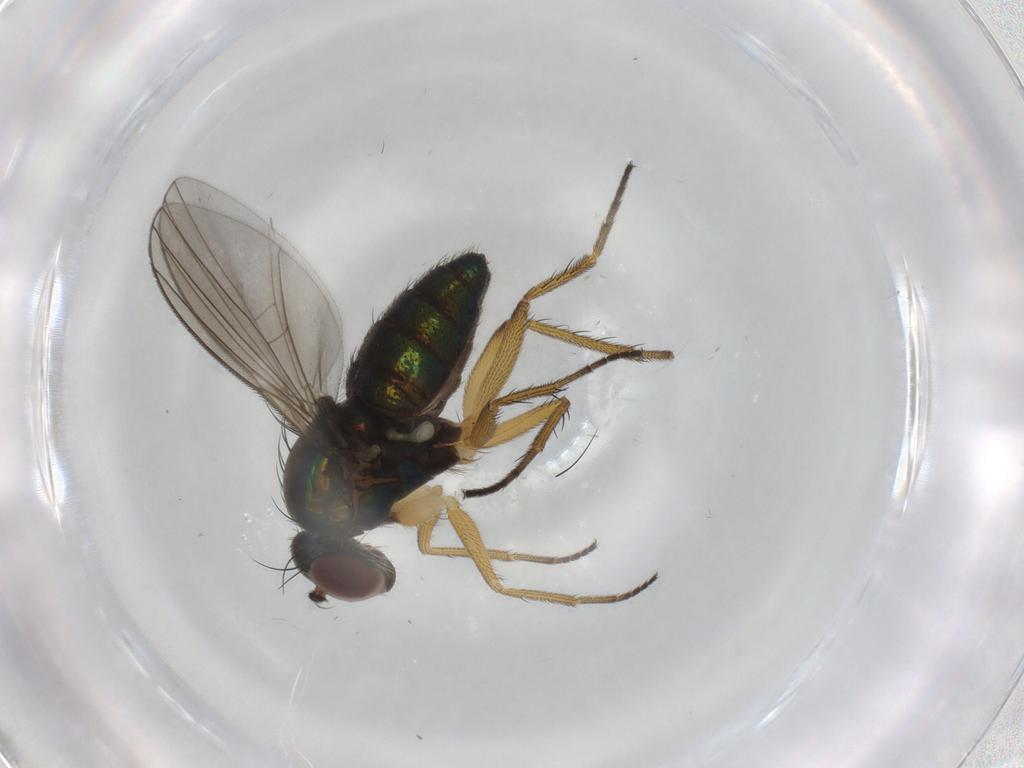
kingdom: Animalia
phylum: Arthropoda
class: Insecta
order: Diptera
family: Dolichopodidae
